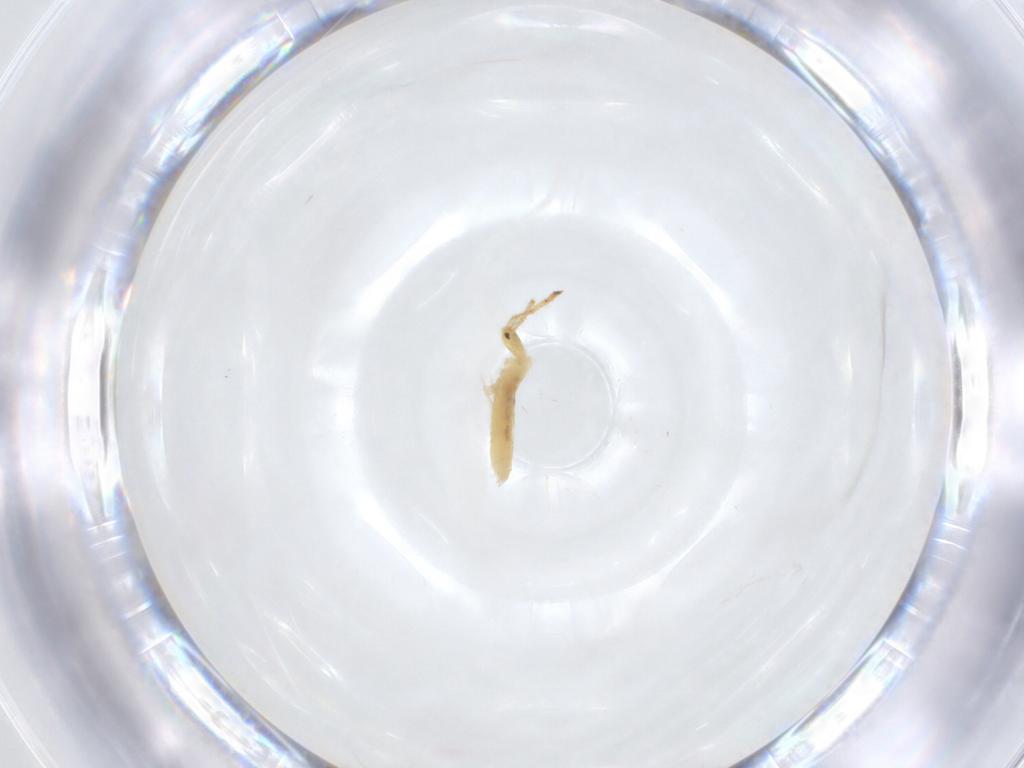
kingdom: Animalia
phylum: Arthropoda
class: Collembola
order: Entomobryomorpha
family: Entomobryidae
